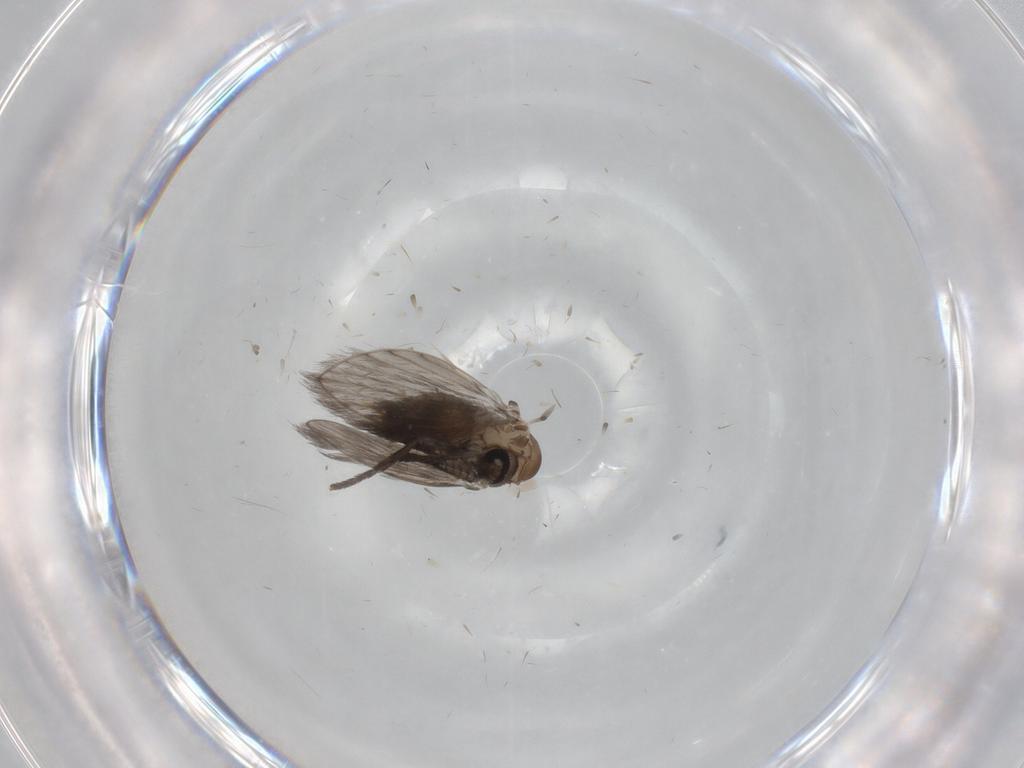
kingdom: Animalia
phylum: Arthropoda
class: Insecta
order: Diptera
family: Psychodidae
